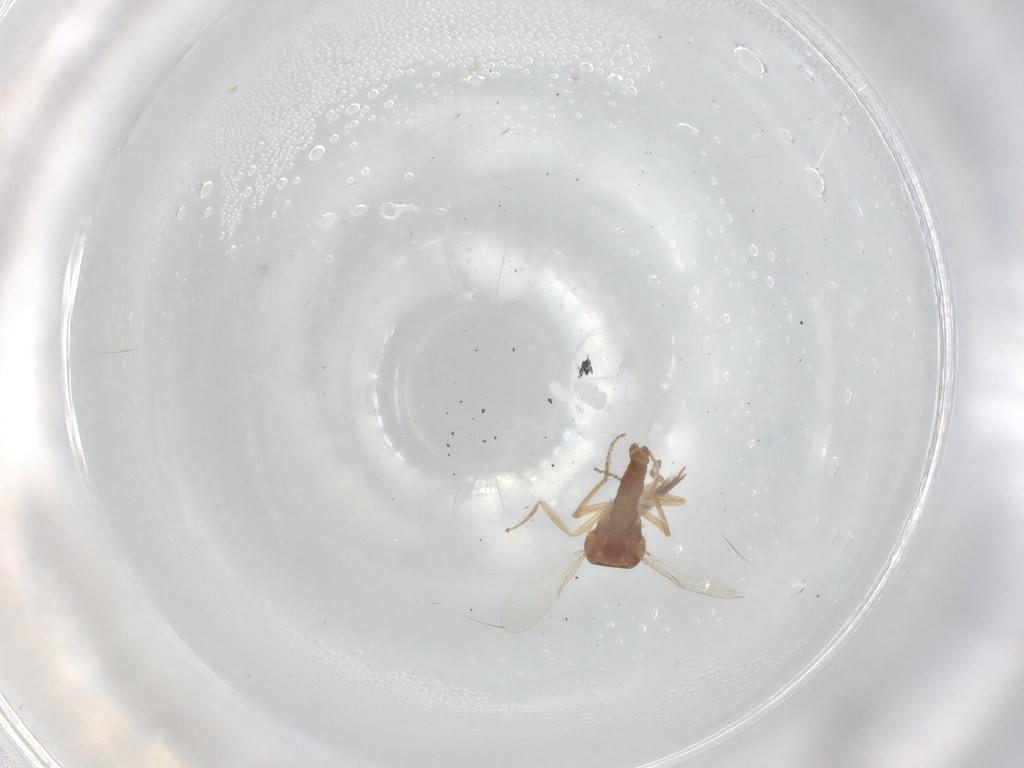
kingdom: Animalia
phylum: Arthropoda
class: Insecta
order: Diptera
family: Ceratopogonidae
